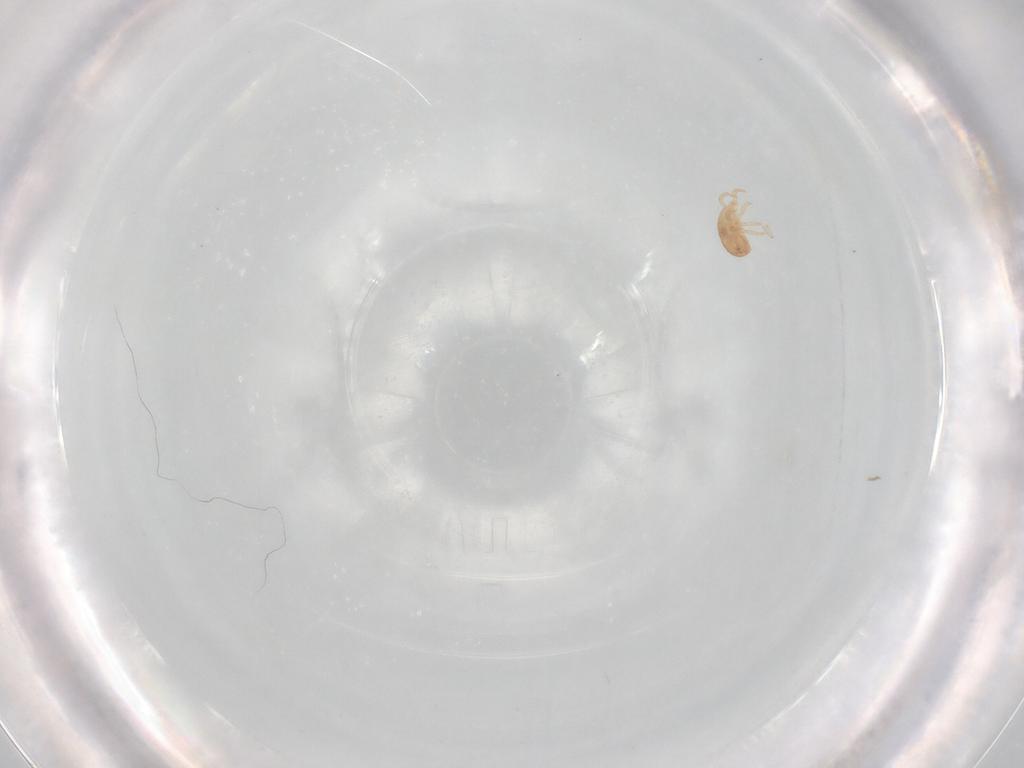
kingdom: Animalia
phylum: Arthropoda
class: Arachnida
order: Mesostigmata
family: Zerconidae
